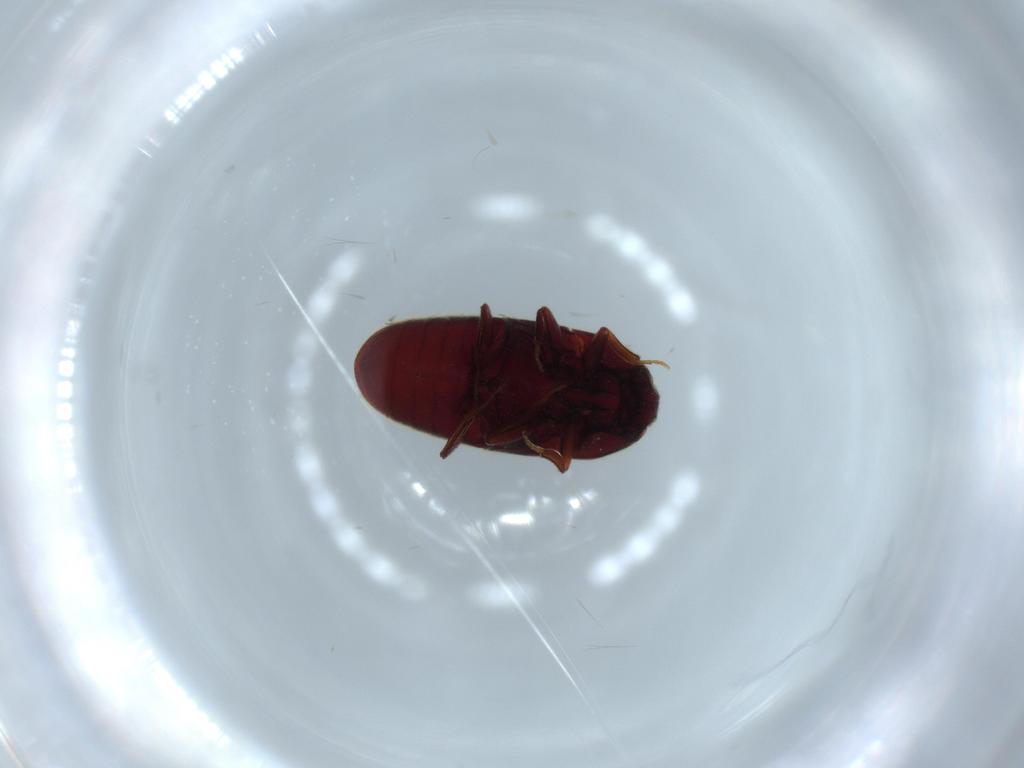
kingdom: Animalia
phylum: Arthropoda
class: Insecta
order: Coleoptera
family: Throscidae
